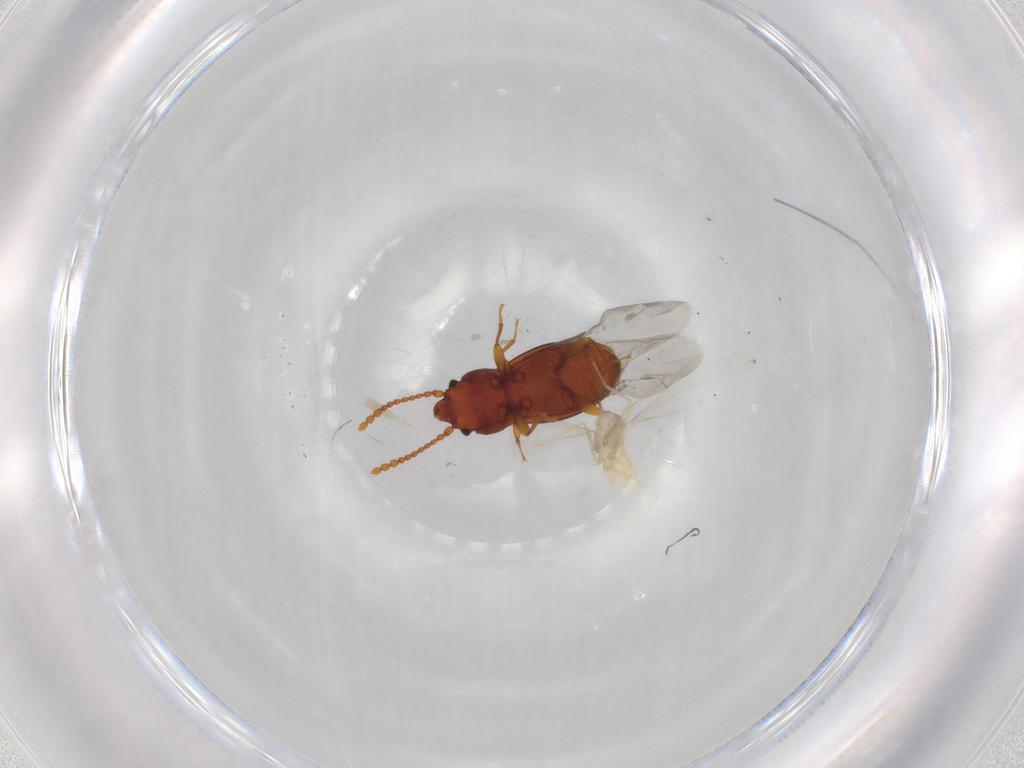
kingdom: Animalia
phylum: Arthropoda
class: Insecta
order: Coleoptera
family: Laemophloeidae
